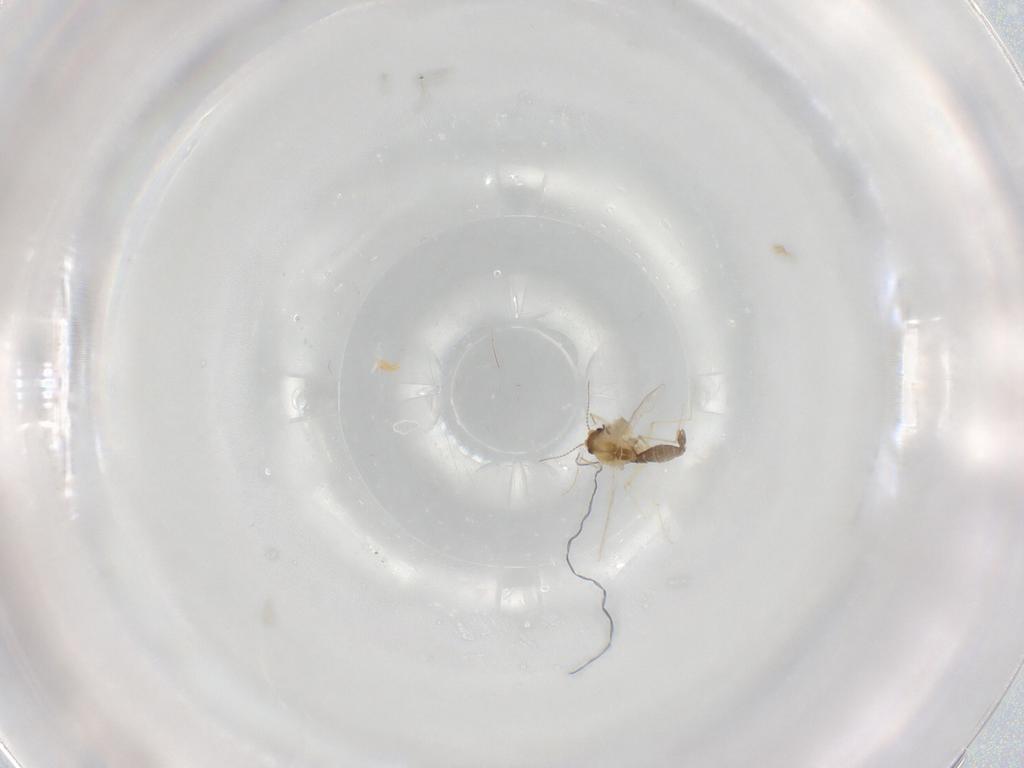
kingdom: Animalia
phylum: Arthropoda
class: Insecta
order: Diptera
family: Chironomidae
